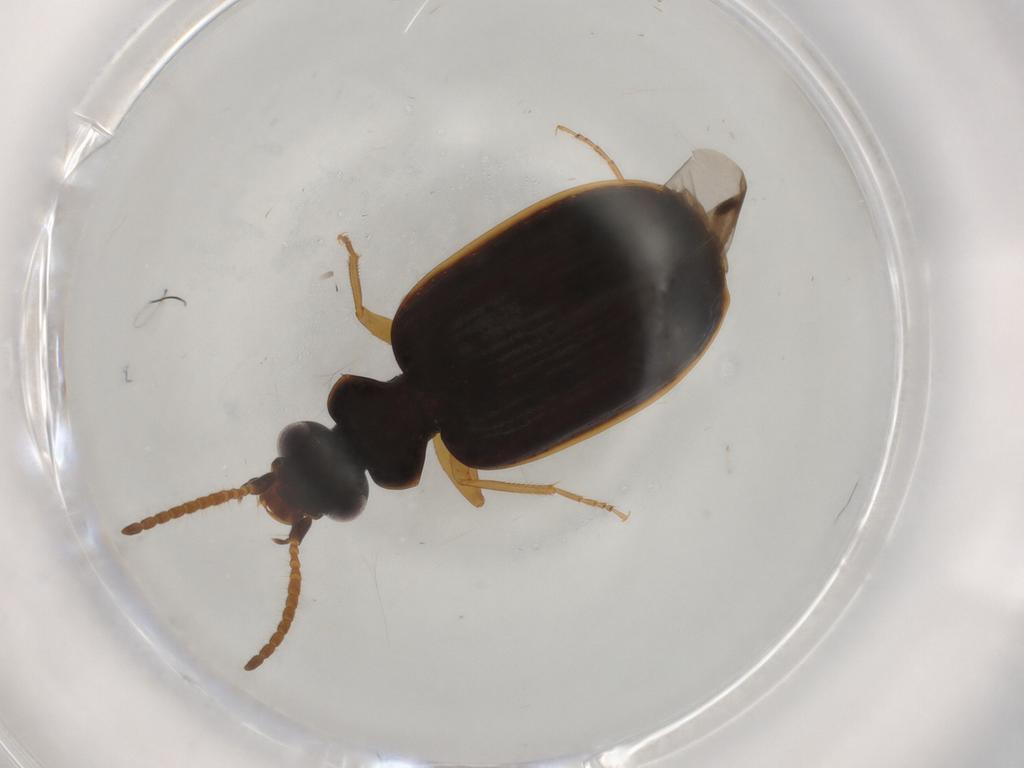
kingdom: Animalia
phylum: Arthropoda
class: Insecta
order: Coleoptera
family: Carabidae
